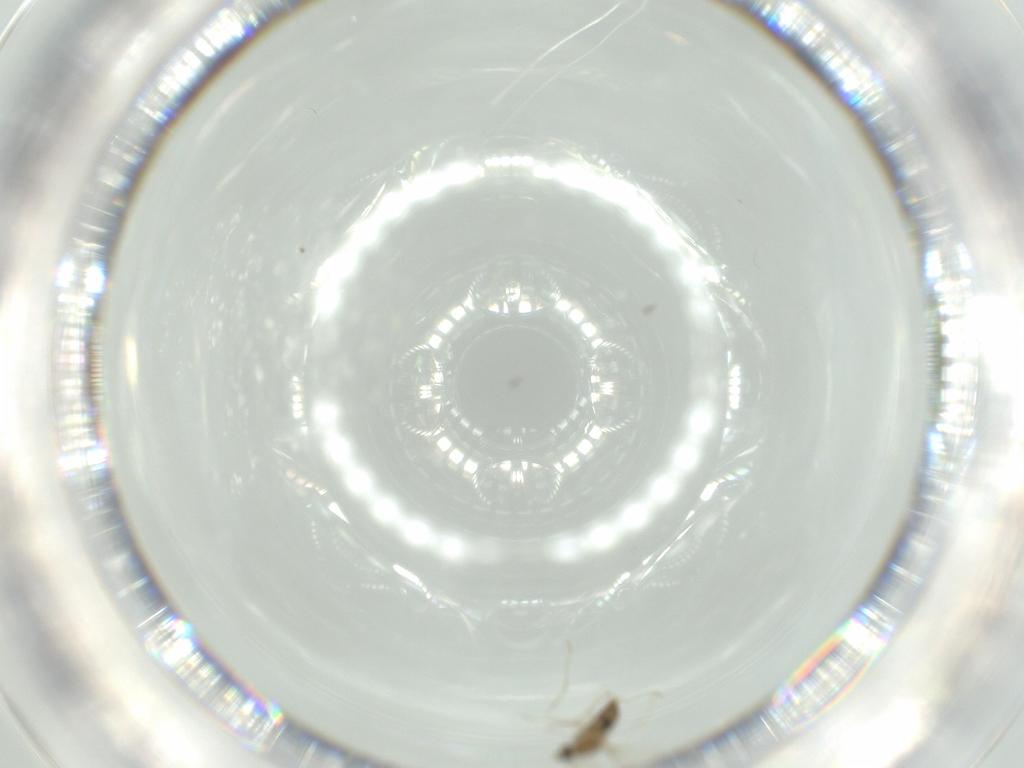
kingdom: Animalia
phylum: Arthropoda
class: Insecta
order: Diptera
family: Cecidomyiidae
